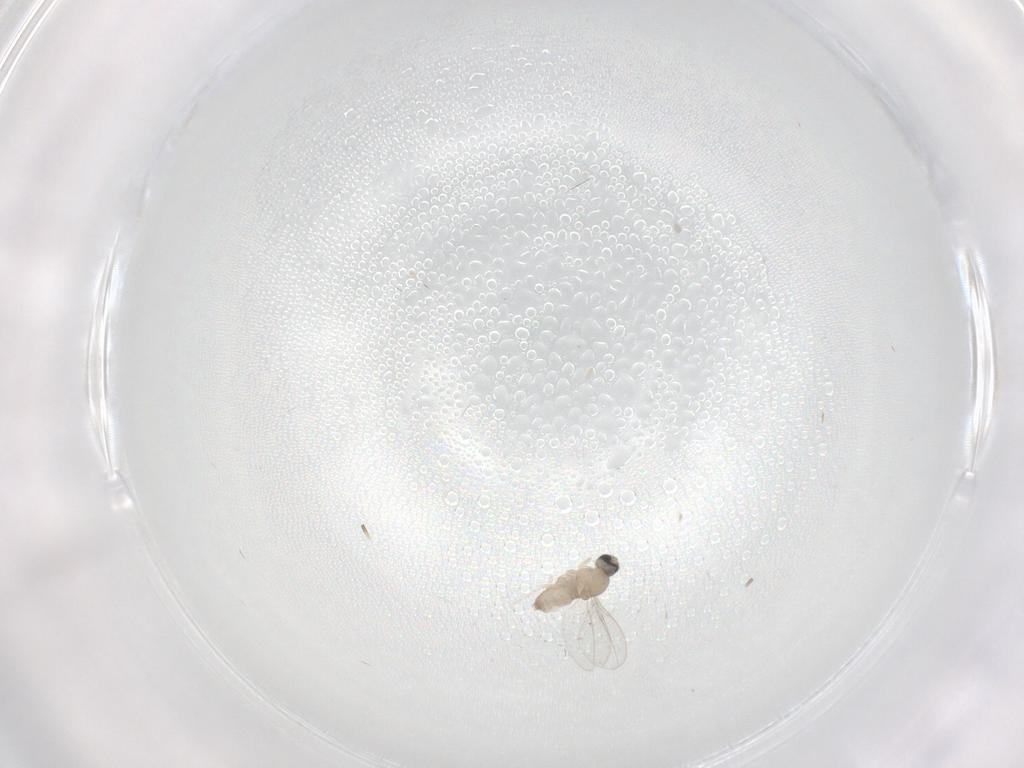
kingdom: Animalia
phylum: Arthropoda
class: Insecta
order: Diptera
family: Cecidomyiidae
